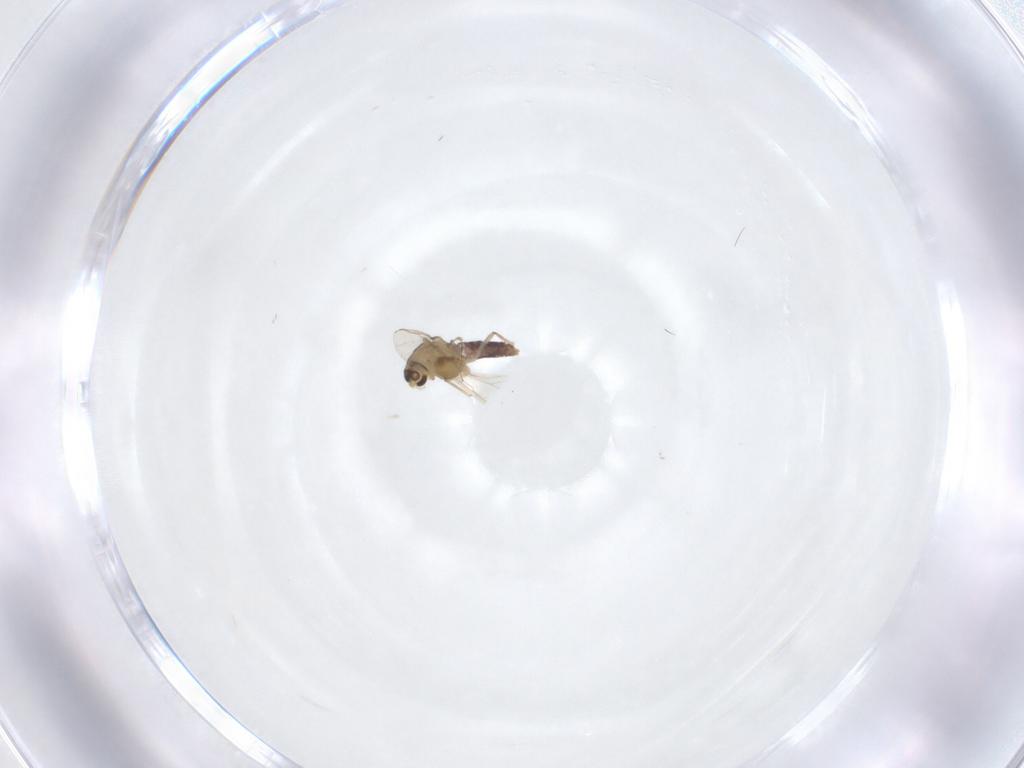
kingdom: Animalia
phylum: Arthropoda
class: Insecta
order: Diptera
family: Chironomidae
